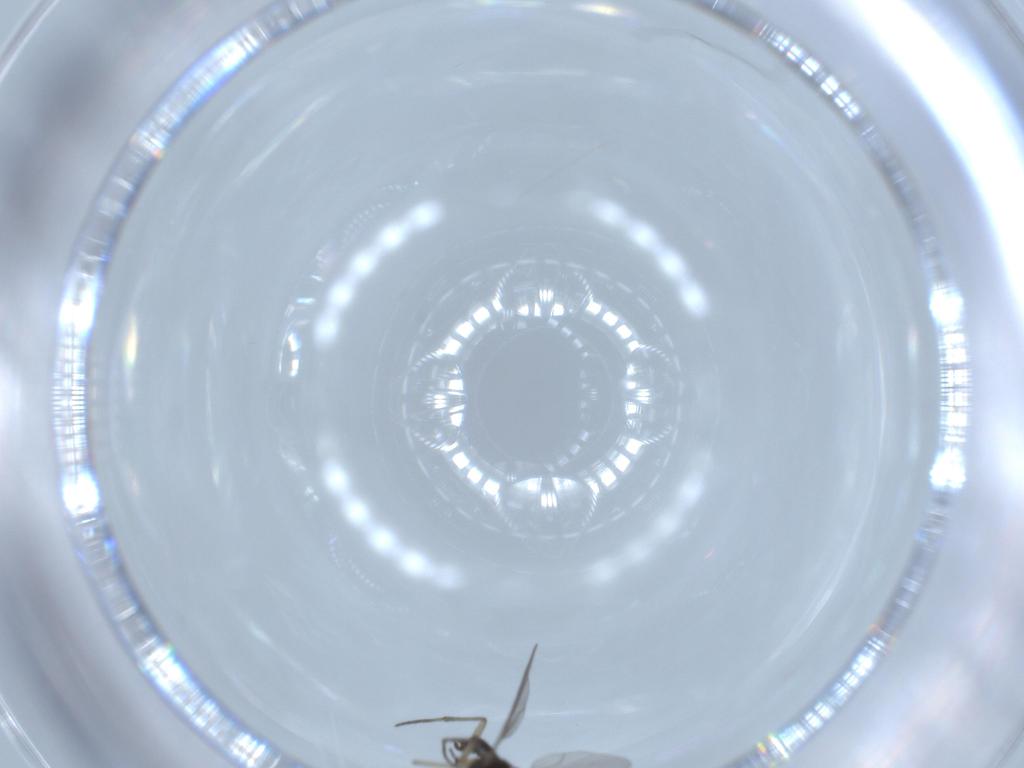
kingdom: Animalia
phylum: Arthropoda
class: Insecta
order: Diptera
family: Sciaridae
